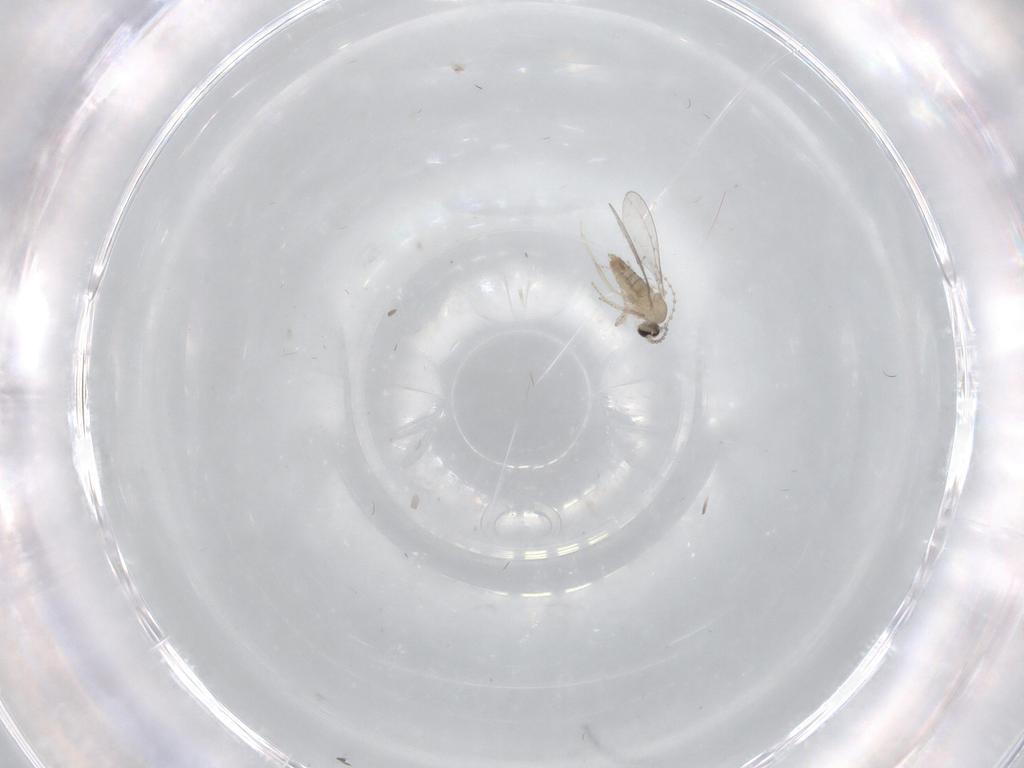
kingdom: Animalia
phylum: Arthropoda
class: Insecta
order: Diptera
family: Cecidomyiidae
